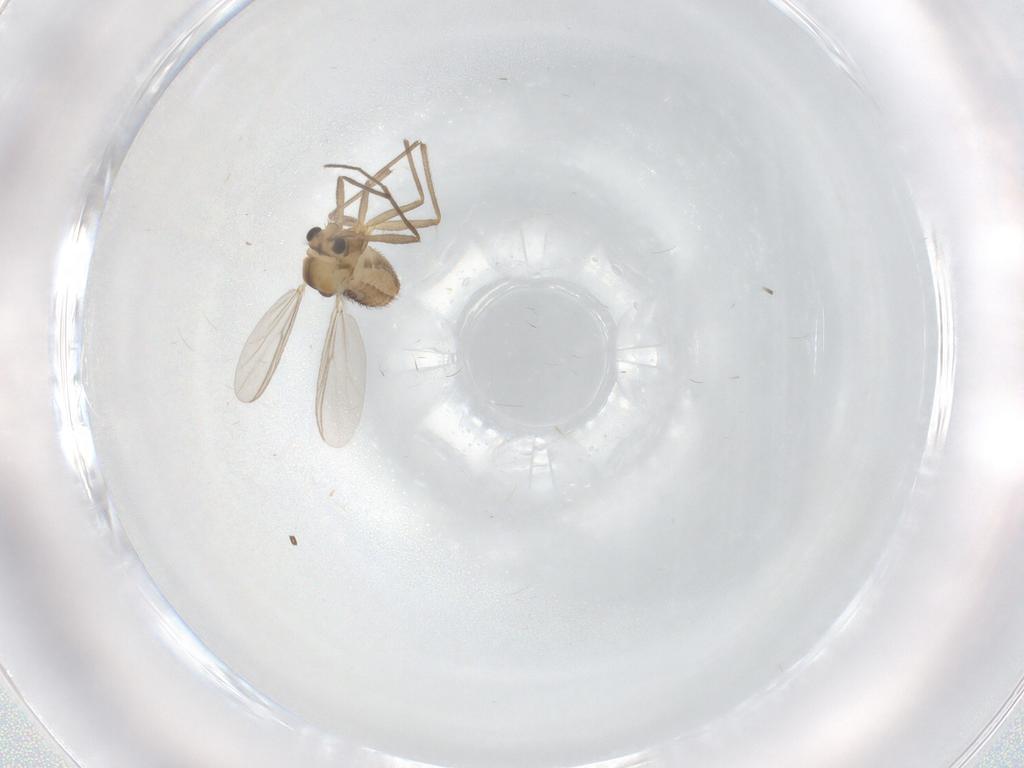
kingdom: Animalia
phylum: Arthropoda
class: Insecta
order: Diptera
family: Chironomidae
